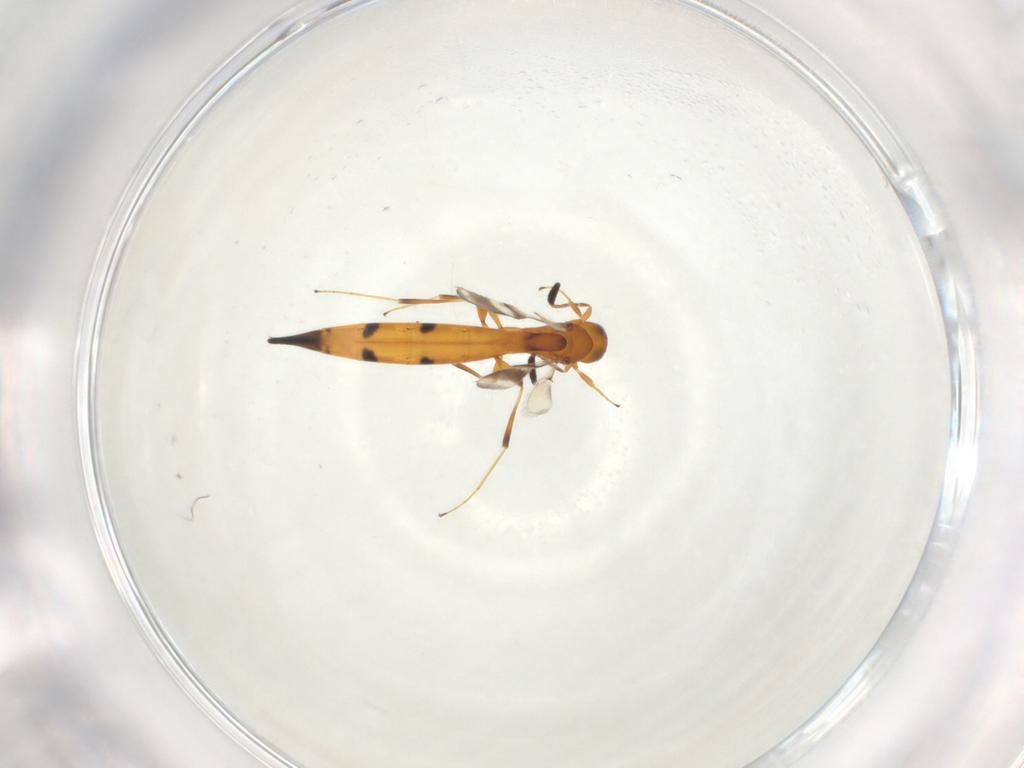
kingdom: Animalia
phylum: Arthropoda
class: Insecta
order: Hymenoptera
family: Scelionidae
